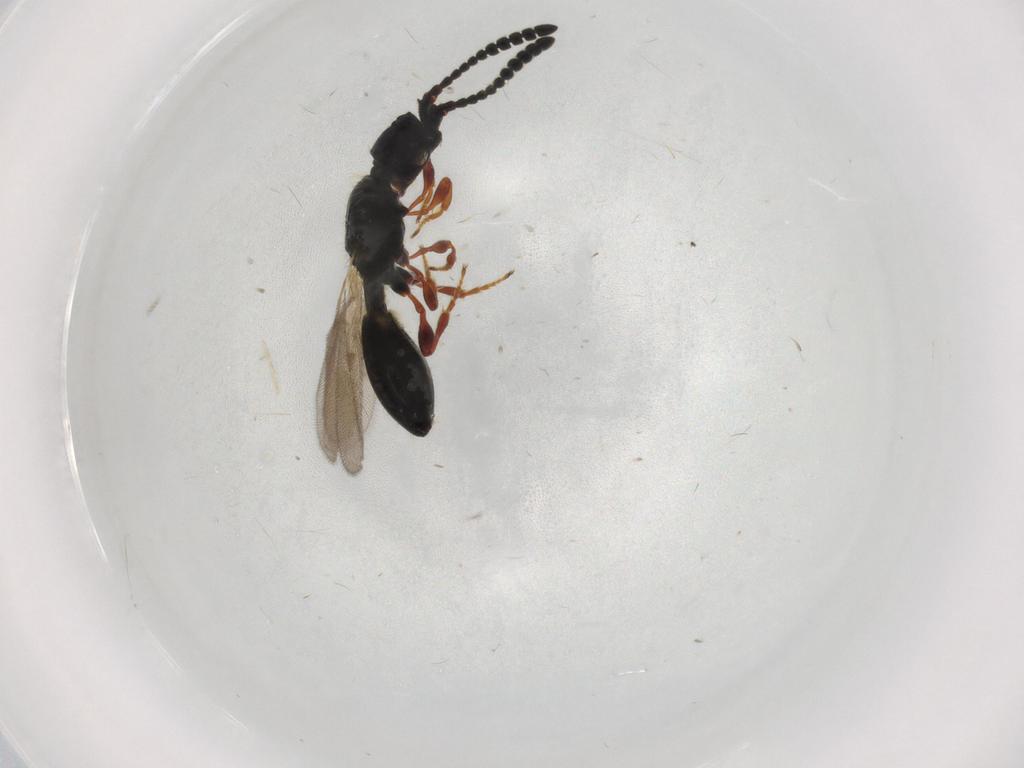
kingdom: Animalia
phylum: Arthropoda
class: Insecta
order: Hymenoptera
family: Diapriidae
